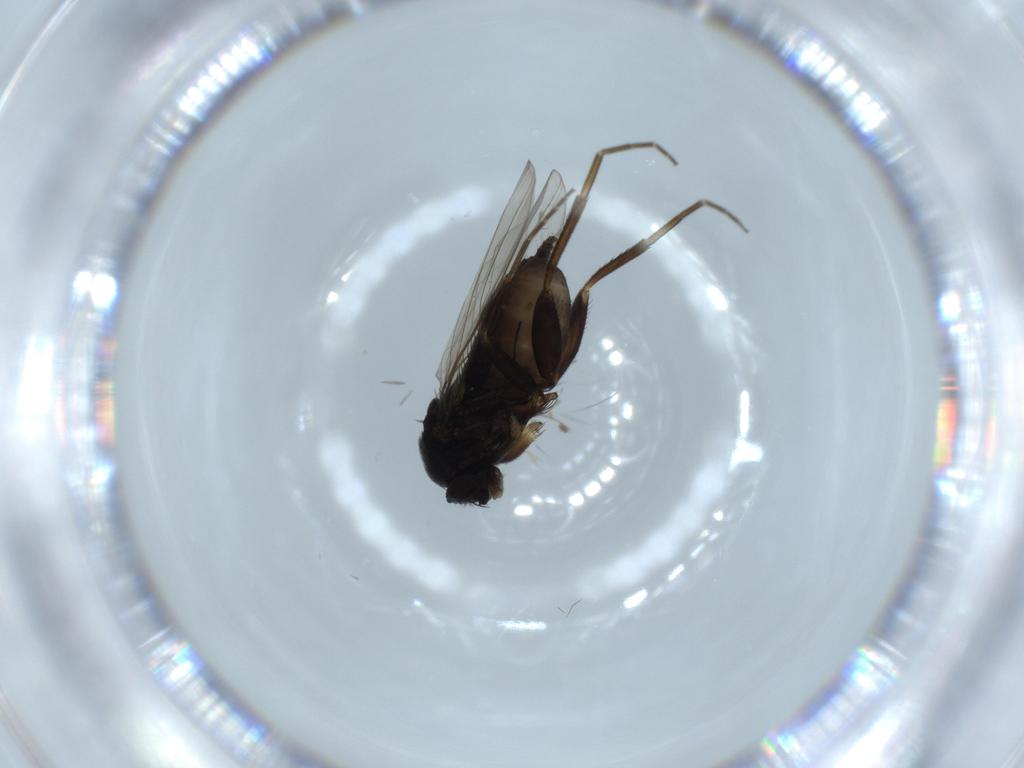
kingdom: Animalia
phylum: Arthropoda
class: Insecta
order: Diptera
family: Phoridae
